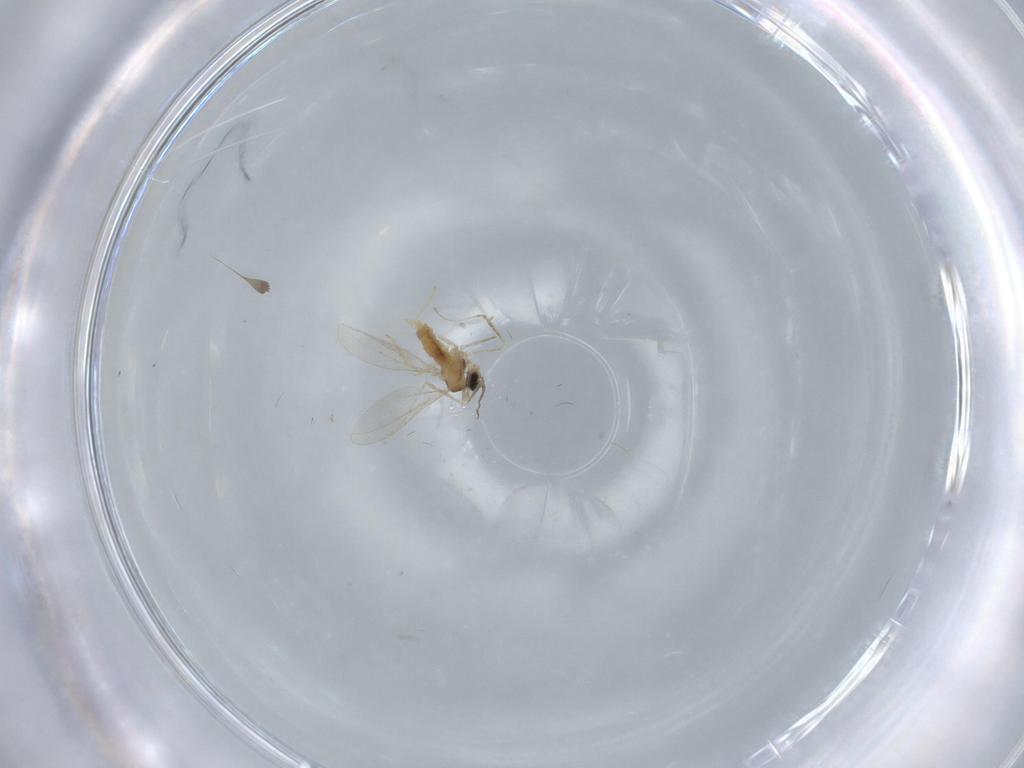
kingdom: Animalia
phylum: Arthropoda
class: Insecta
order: Diptera
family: Cecidomyiidae
